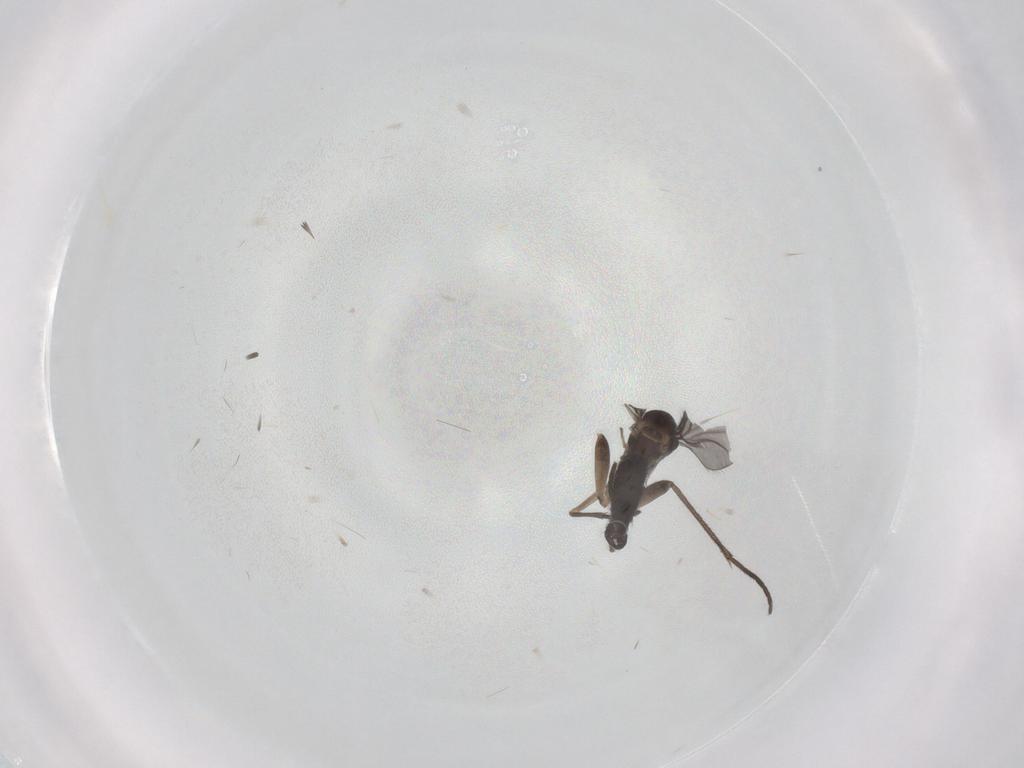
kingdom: Animalia
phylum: Arthropoda
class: Insecta
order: Diptera
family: Sciaridae
